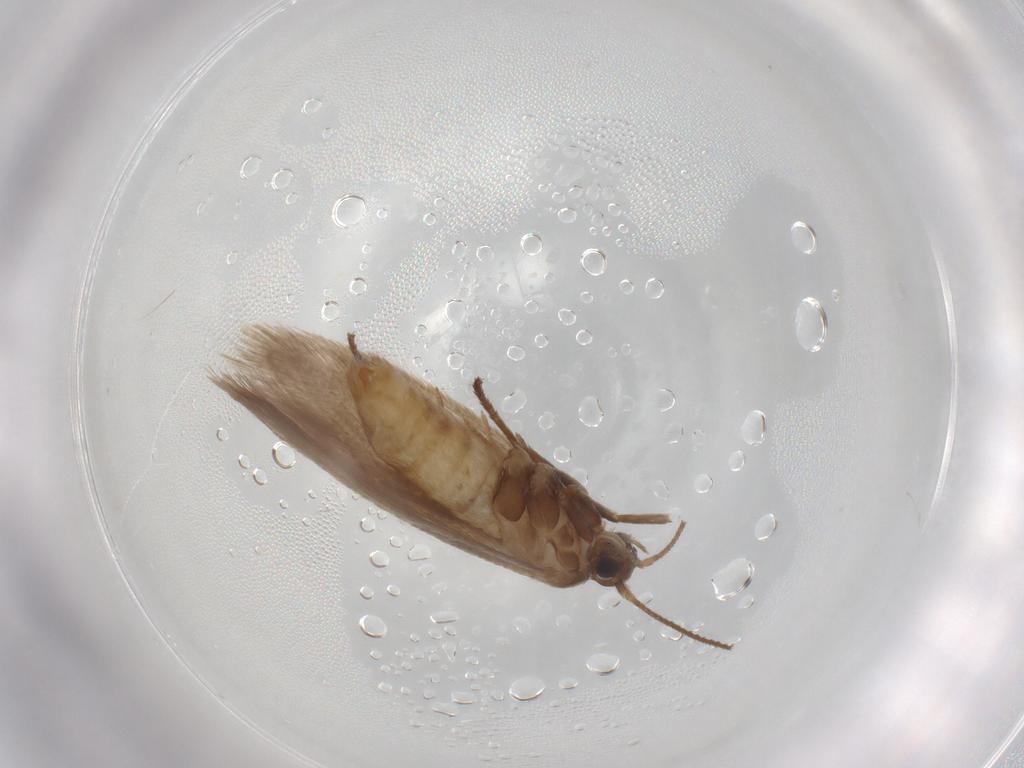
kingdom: Animalia
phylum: Arthropoda
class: Insecta
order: Lepidoptera
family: Limacodidae
